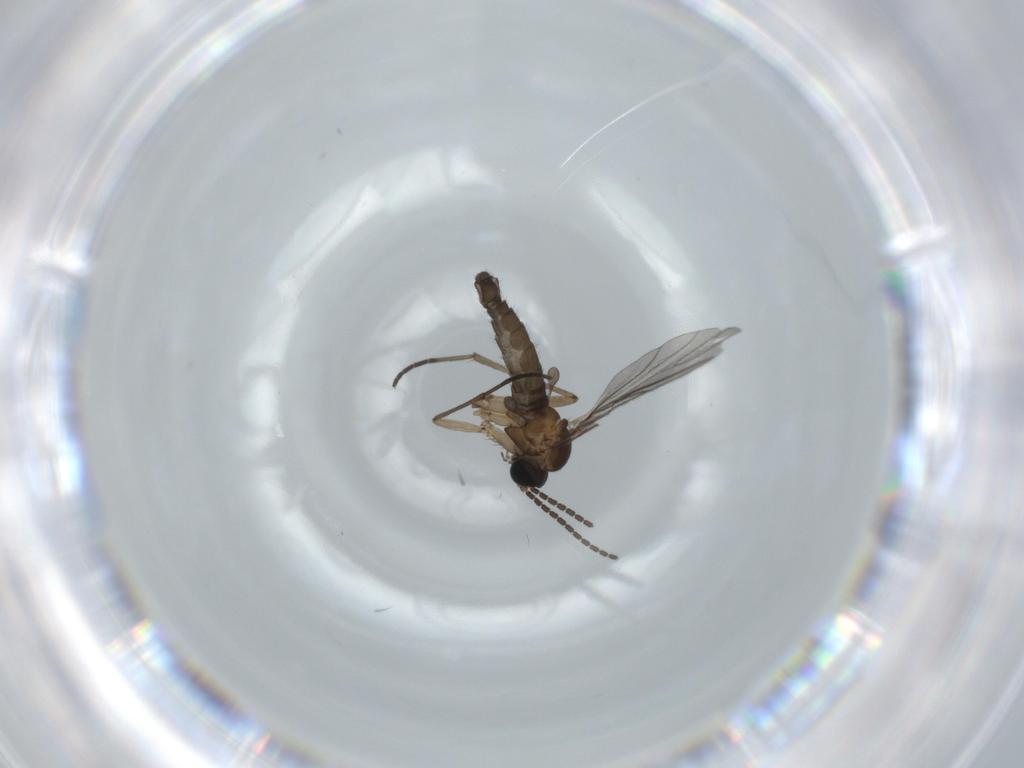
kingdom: Animalia
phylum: Arthropoda
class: Insecta
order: Diptera
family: Sciaridae
